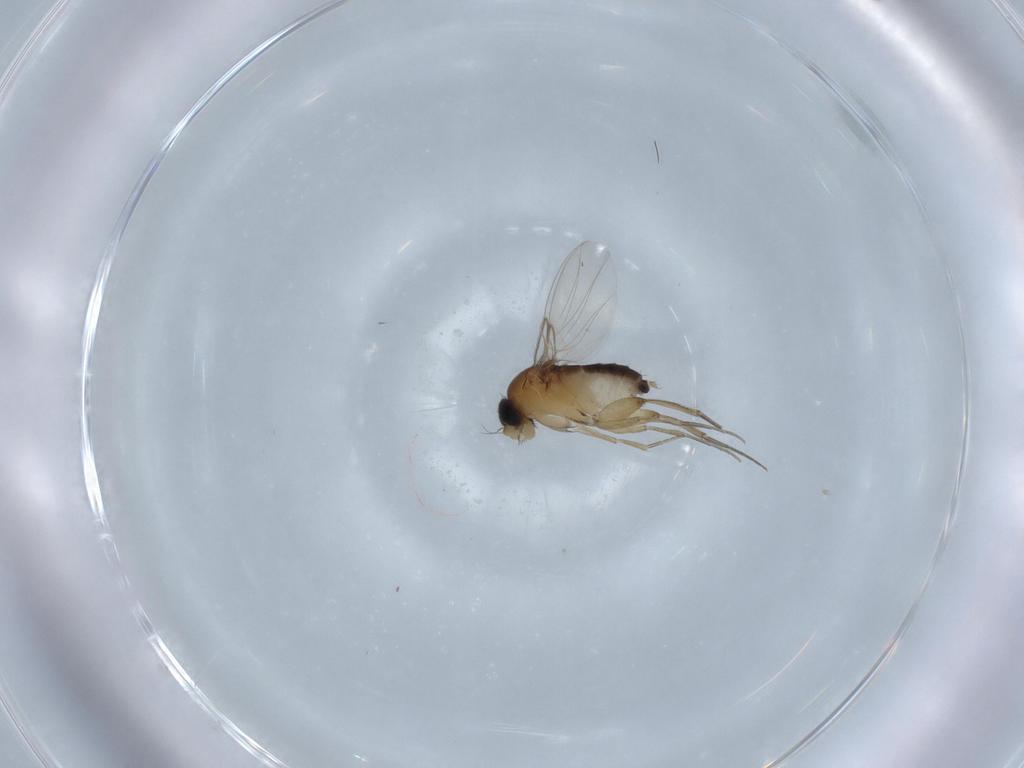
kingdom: Animalia
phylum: Arthropoda
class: Insecta
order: Diptera
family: Phoridae
